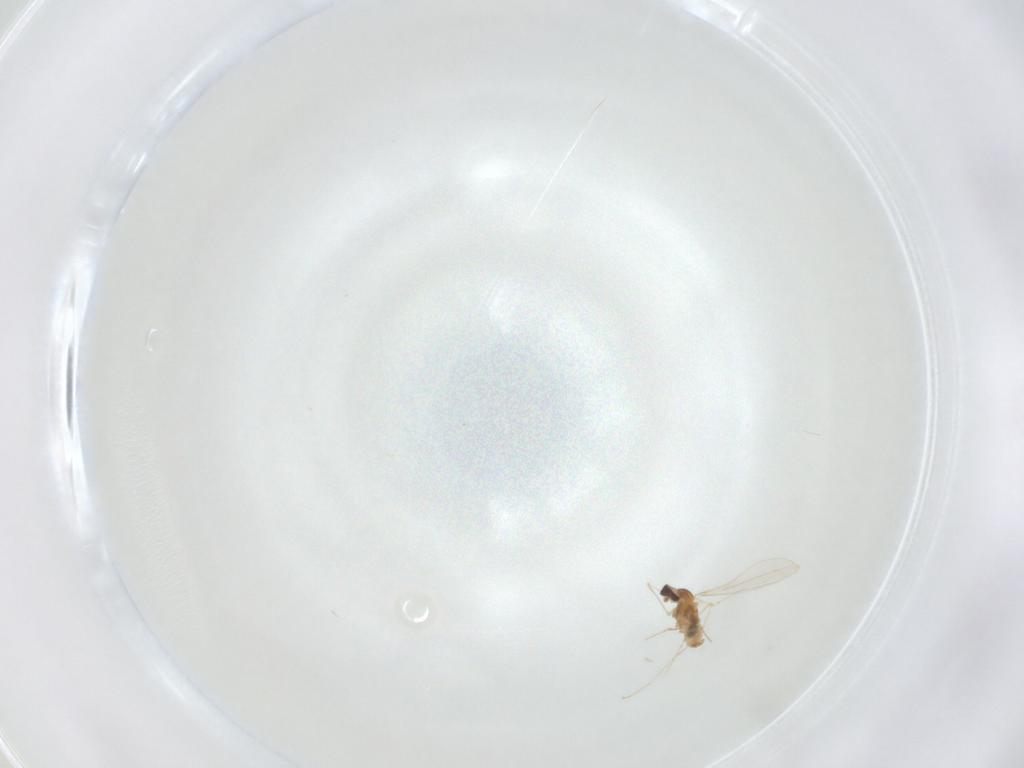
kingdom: Animalia
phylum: Arthropoda
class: Insecta
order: Diptera
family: Cecidomyiidae
